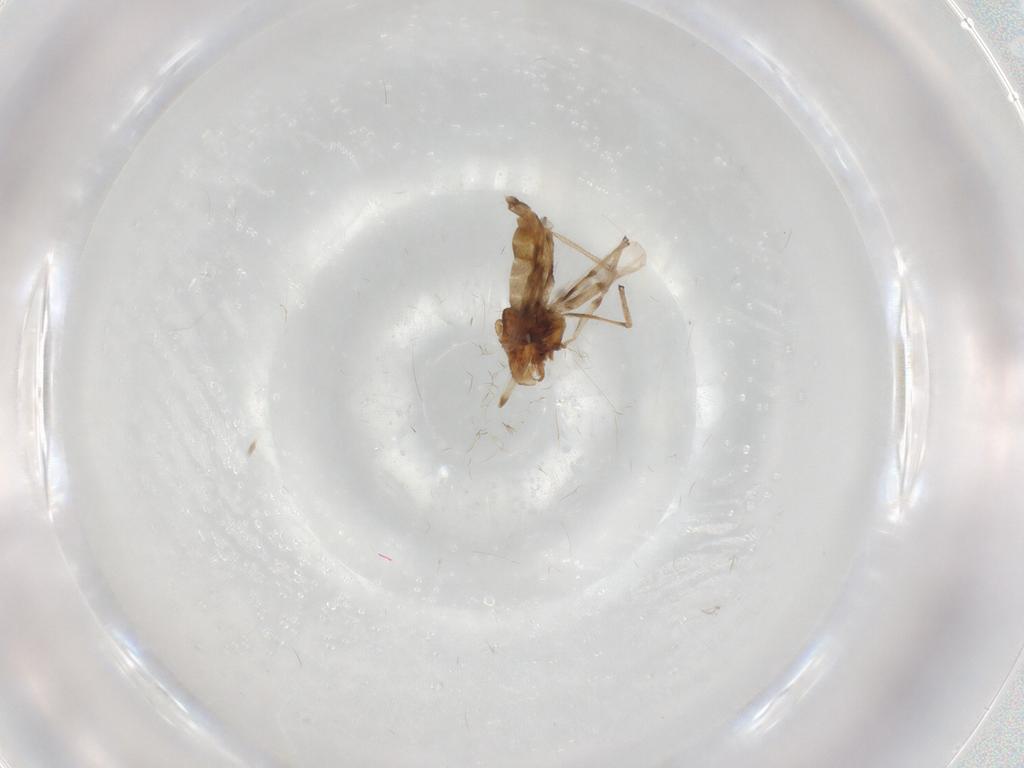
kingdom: Animalia
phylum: Arthropoda
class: Insecta
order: Diptera
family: Chironomidae
